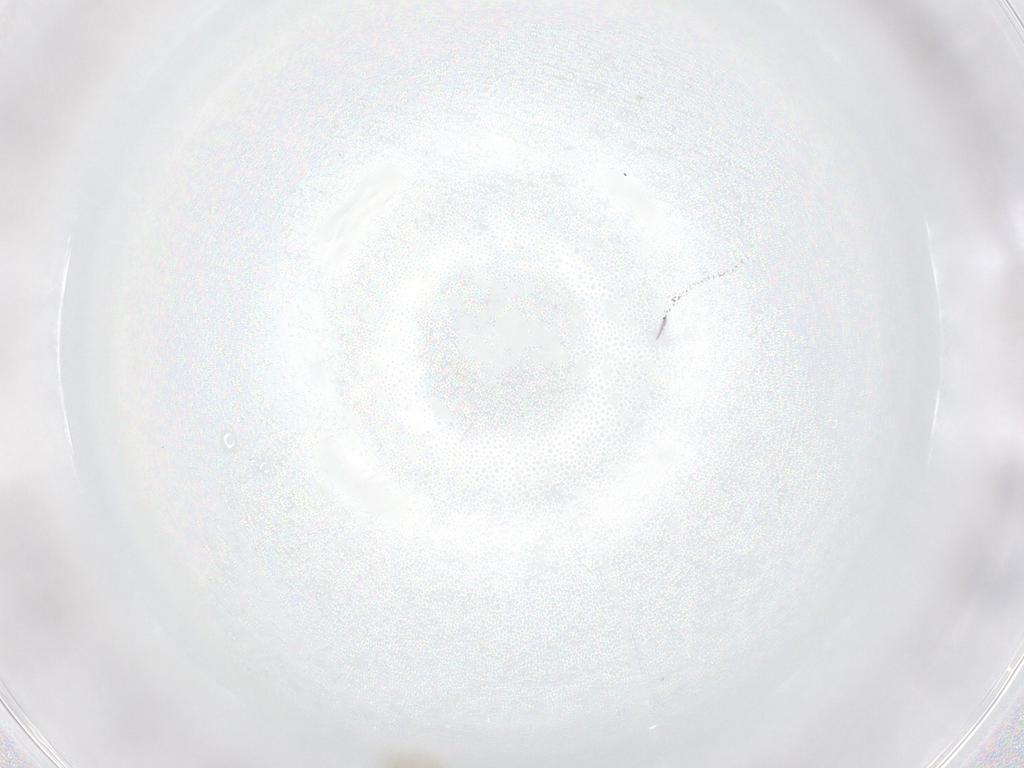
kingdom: Animalia
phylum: Arthropoda
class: Insecta
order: Hymenoptera
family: Trichogrammatidae
